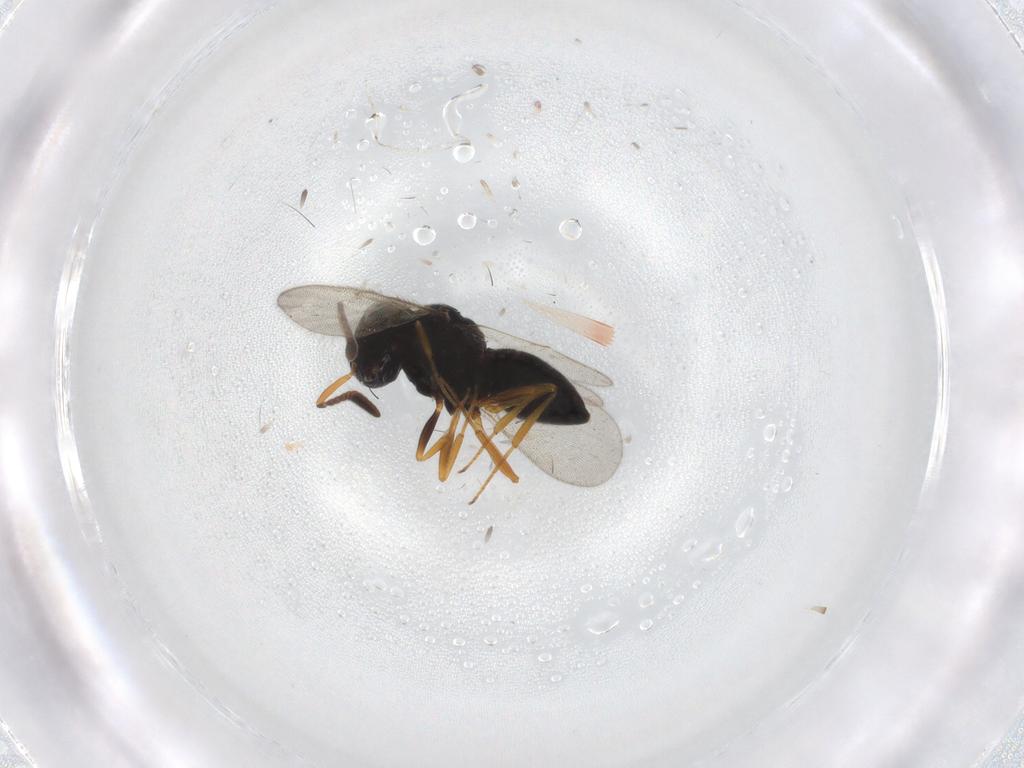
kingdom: Animalia
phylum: Arthropoda
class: Insecta
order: Hymenoptera
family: Scelionidae
